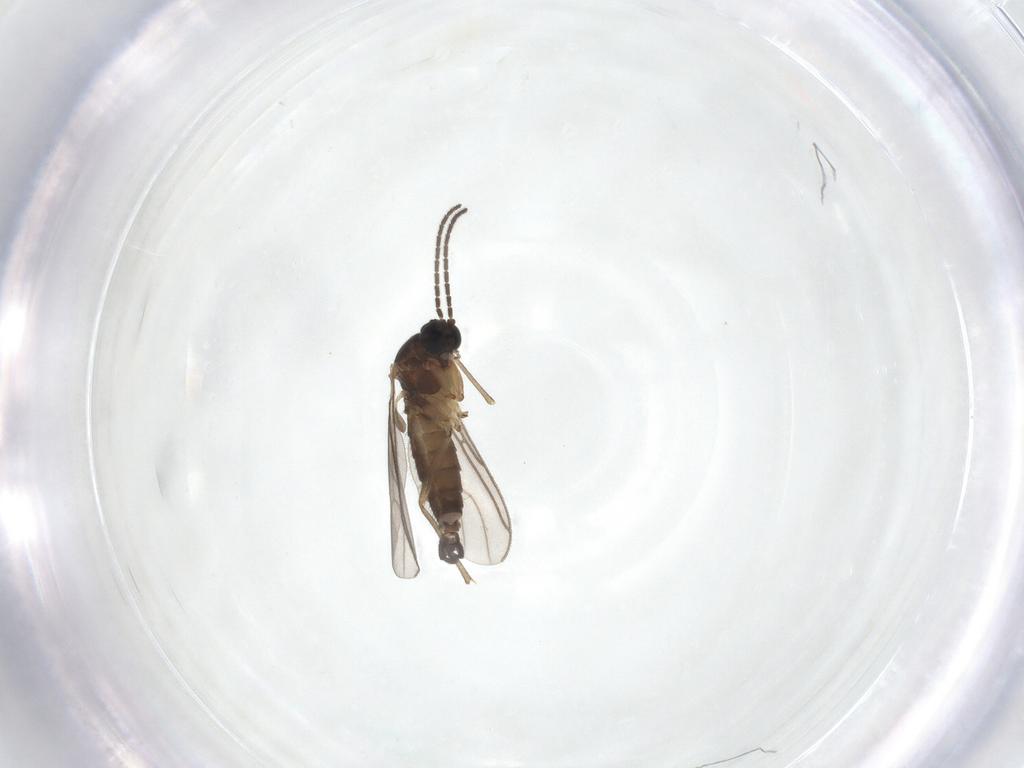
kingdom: Animalia
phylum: Arthropoda
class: Insecta
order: Diptera
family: Sciaridae
